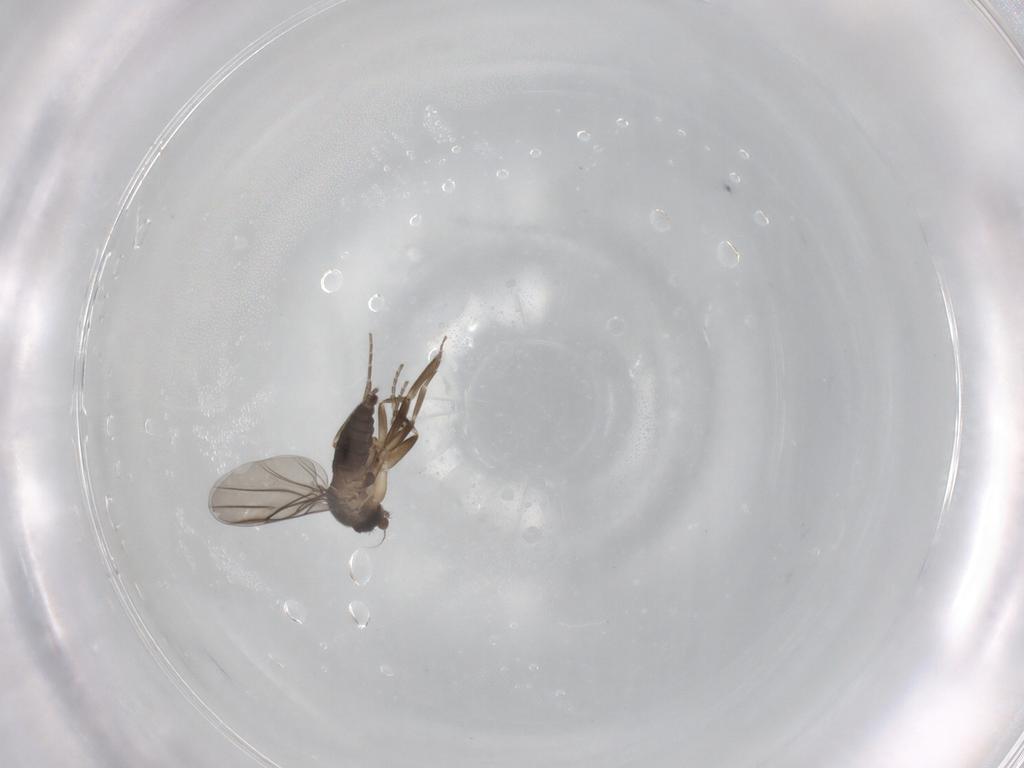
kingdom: Animalia
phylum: Arthropoda
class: Insecta
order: Diptera
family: Phoridae
